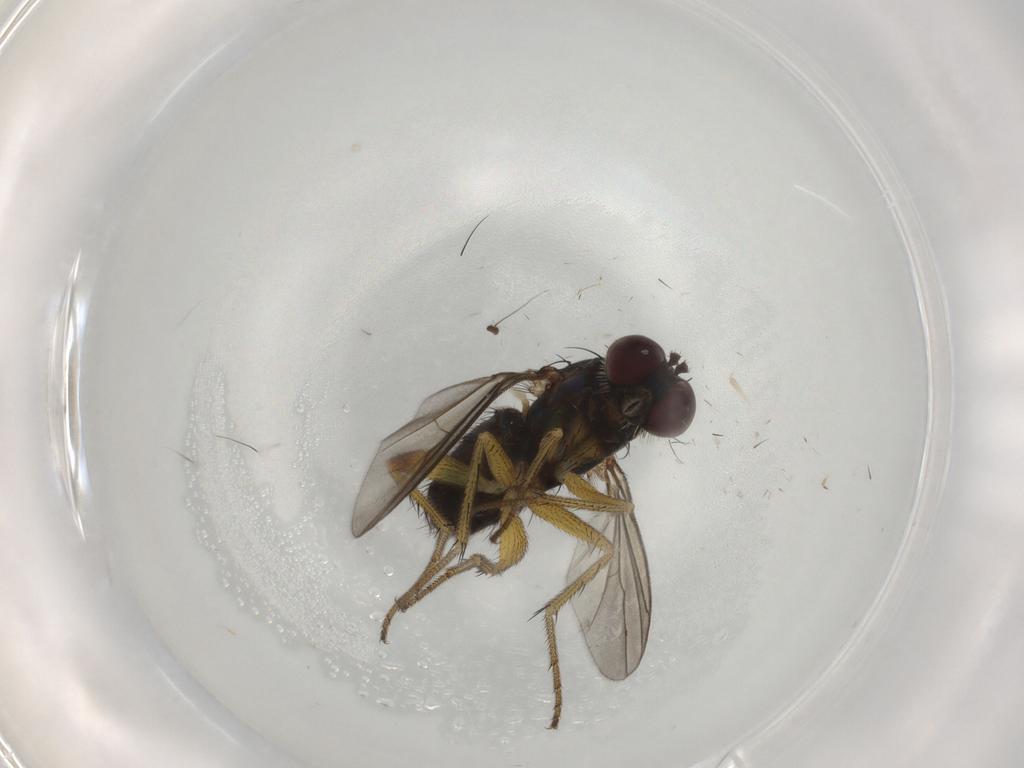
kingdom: Animalia
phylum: Arthropoda
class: Insecta
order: Diptera
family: Dolichopodidae
